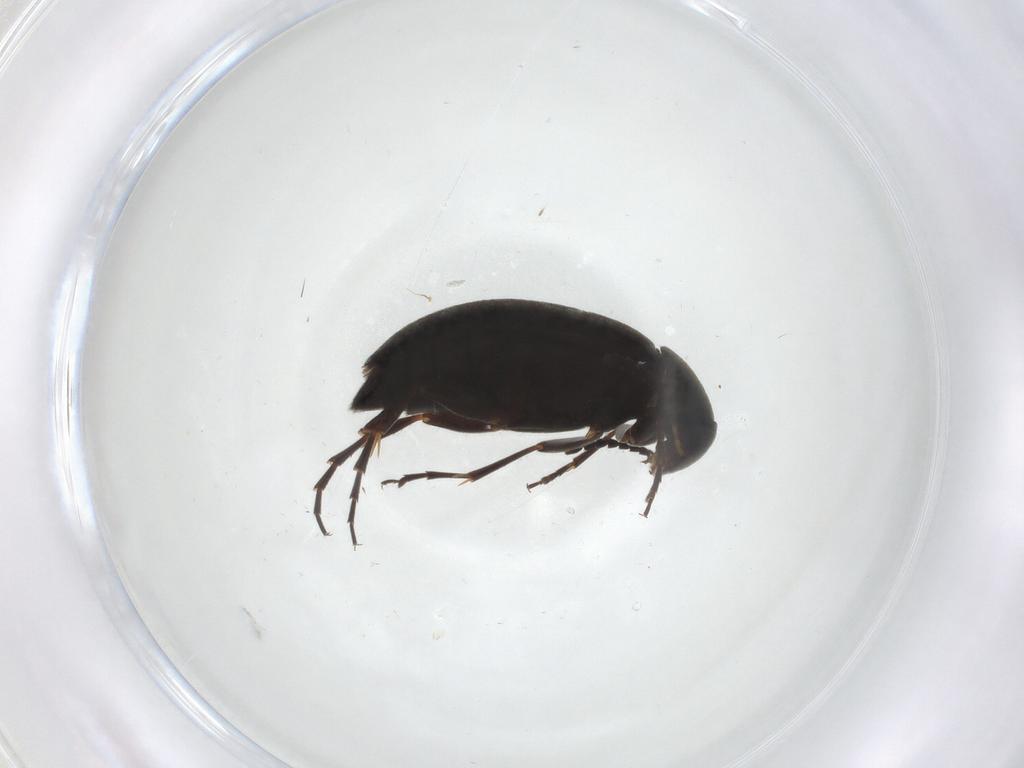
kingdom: Animalia
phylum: Arthropoda
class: Insecta
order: Coleoptera
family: Scraptiidae
